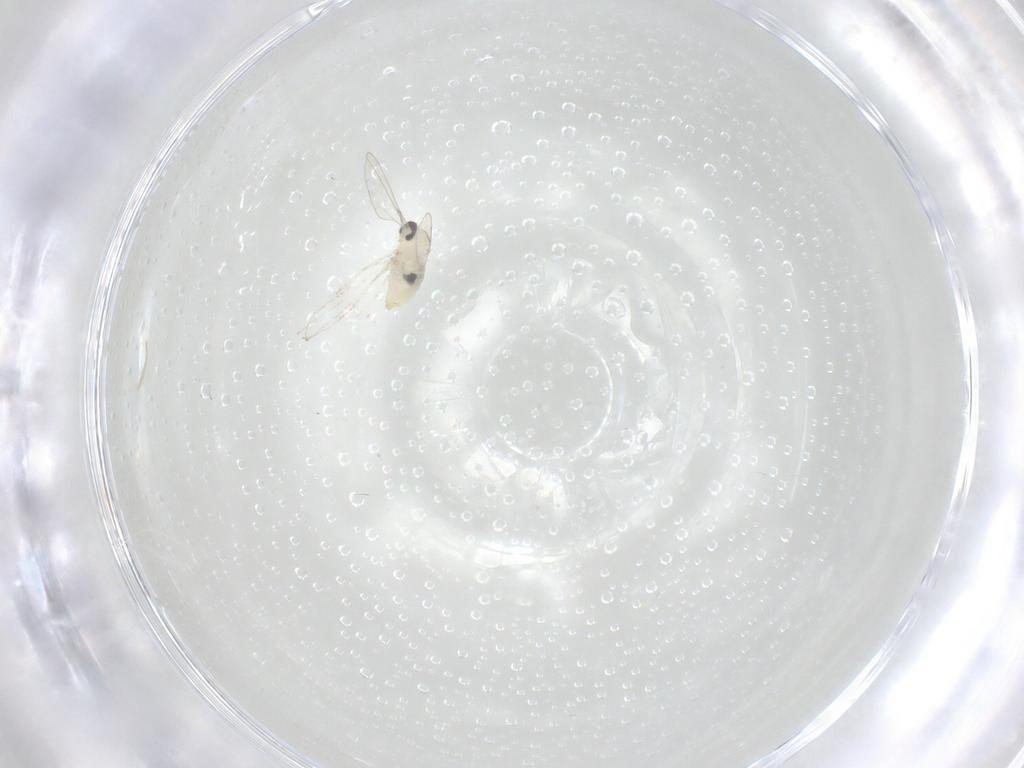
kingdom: Animalia
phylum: Arthropoda
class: Insecta
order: Diptera
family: Cecidomyiidae
